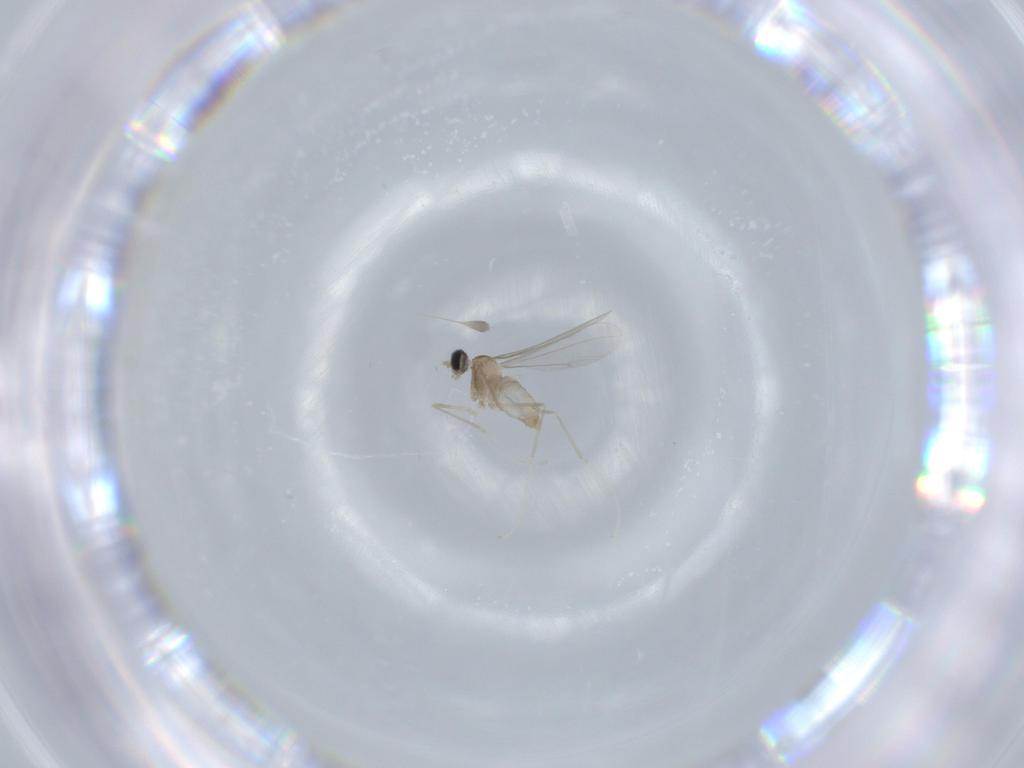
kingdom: Animalia
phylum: Arthropoda
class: Insecta
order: Diptera
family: Cecidomyiidae
